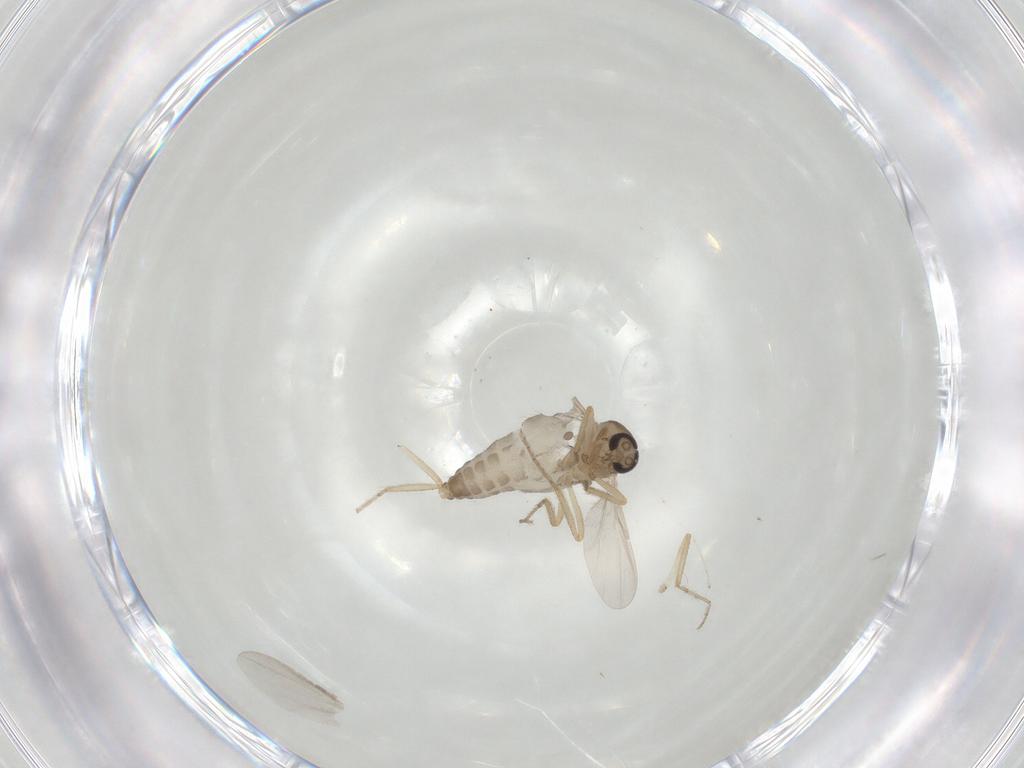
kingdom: Animalia
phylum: Arthropoda
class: Insecta
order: Diptera
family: Ceratopogonidae
